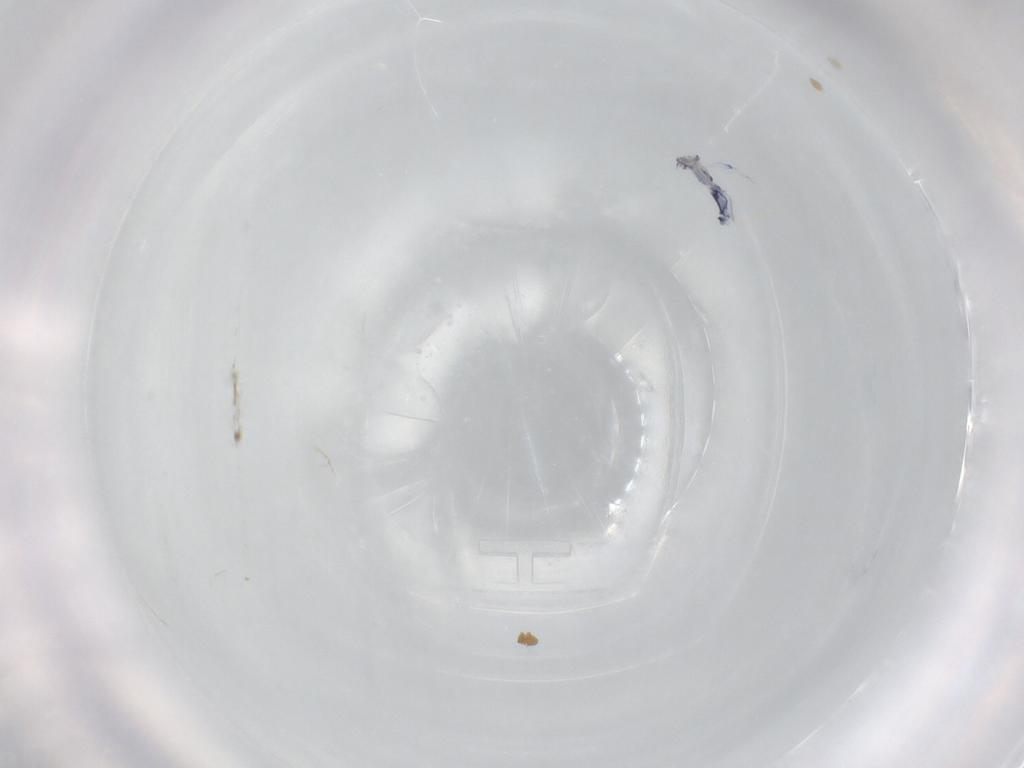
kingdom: Animalia
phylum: Arthropoda
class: Collembola
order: Entomobryomorpha
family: Entomobryidae
